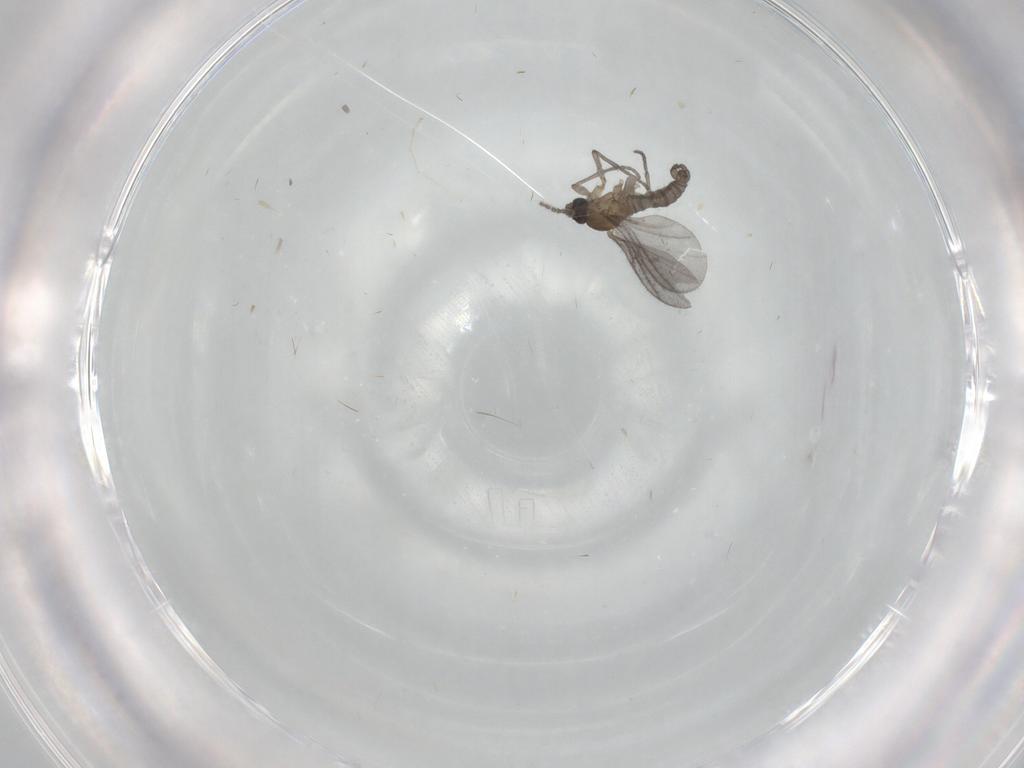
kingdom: Animalia
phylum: Arthropoda
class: Insecta
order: Diptera
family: Sciaridae
